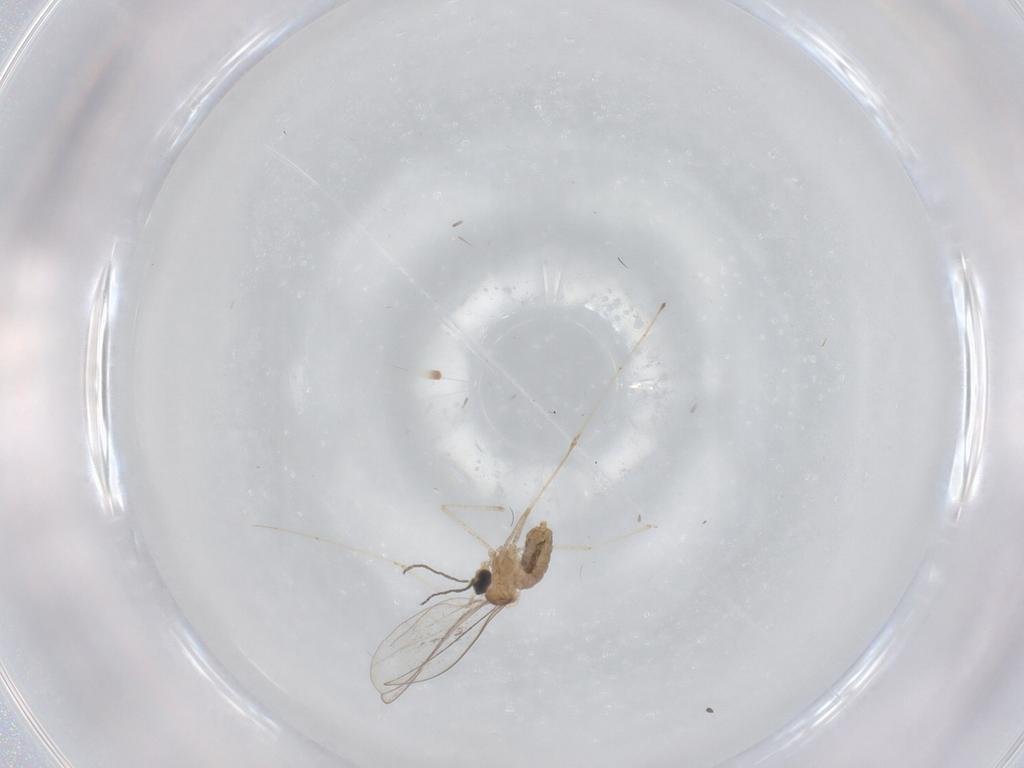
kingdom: Animalia
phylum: Arthropoda
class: Insecta
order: Diptera
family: Cecidomyiidae
